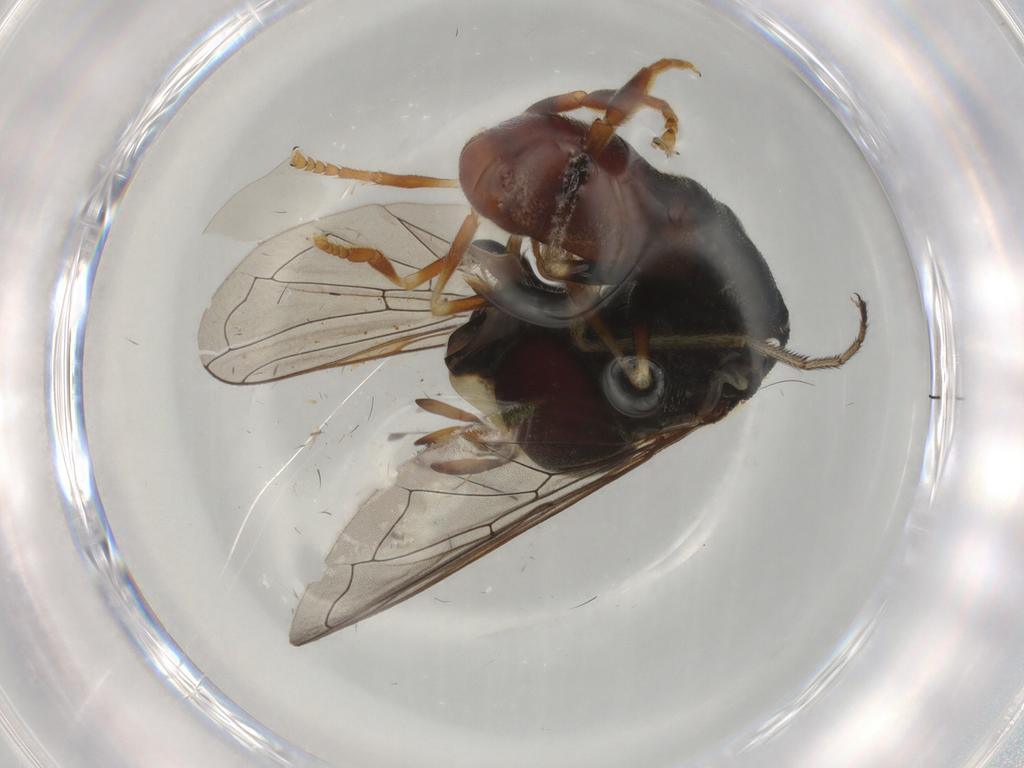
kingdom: Animalia
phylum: Arthropoda
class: Insecta
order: Diptera
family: Syrphidae
